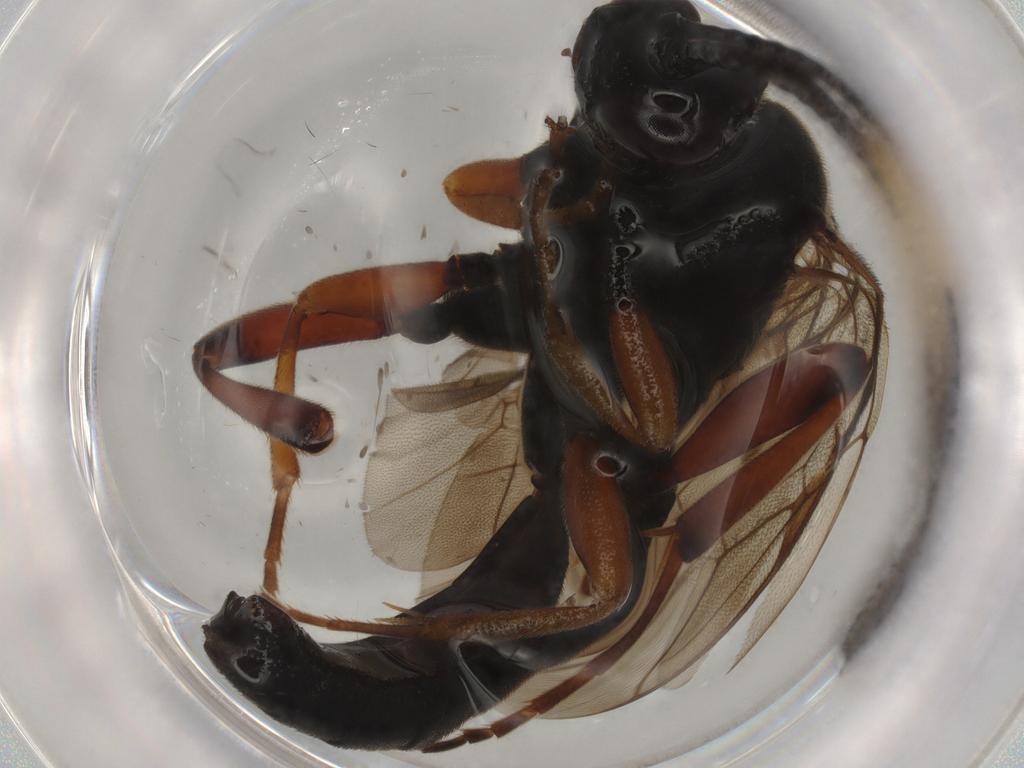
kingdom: Animalia
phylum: Arthropoda
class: Insecta
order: Hymenoptera
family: Ichneumonidae
